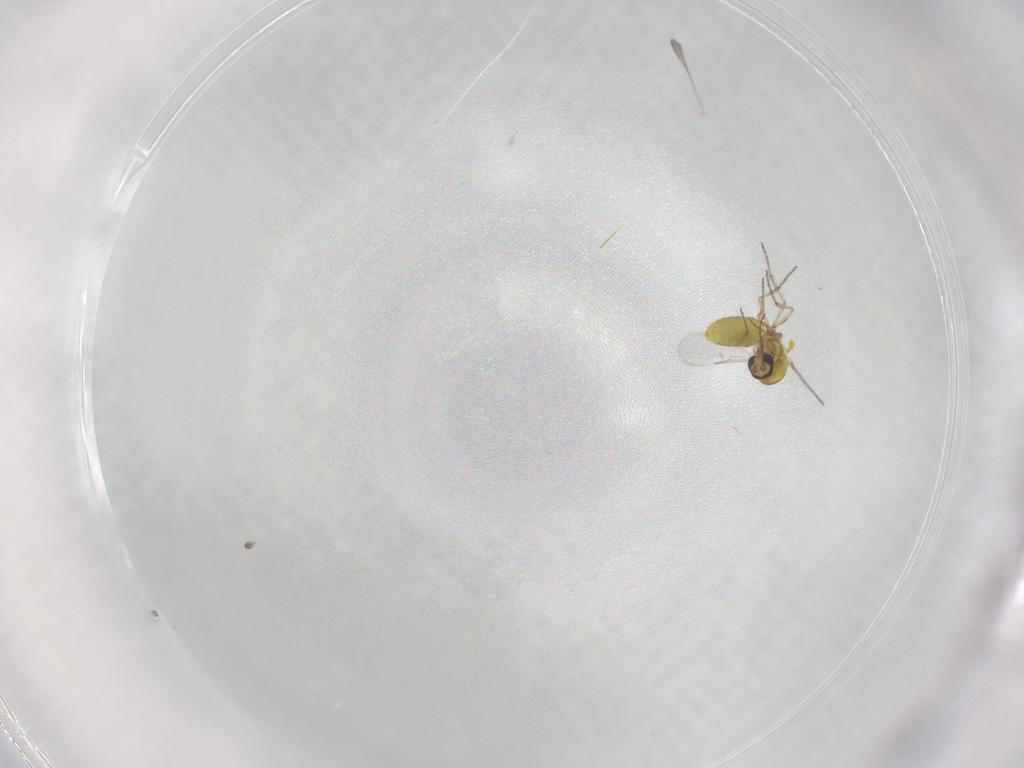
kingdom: Animalia
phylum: Arthropoda
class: Insecta
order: Diptera
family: Ceratopogonidae
